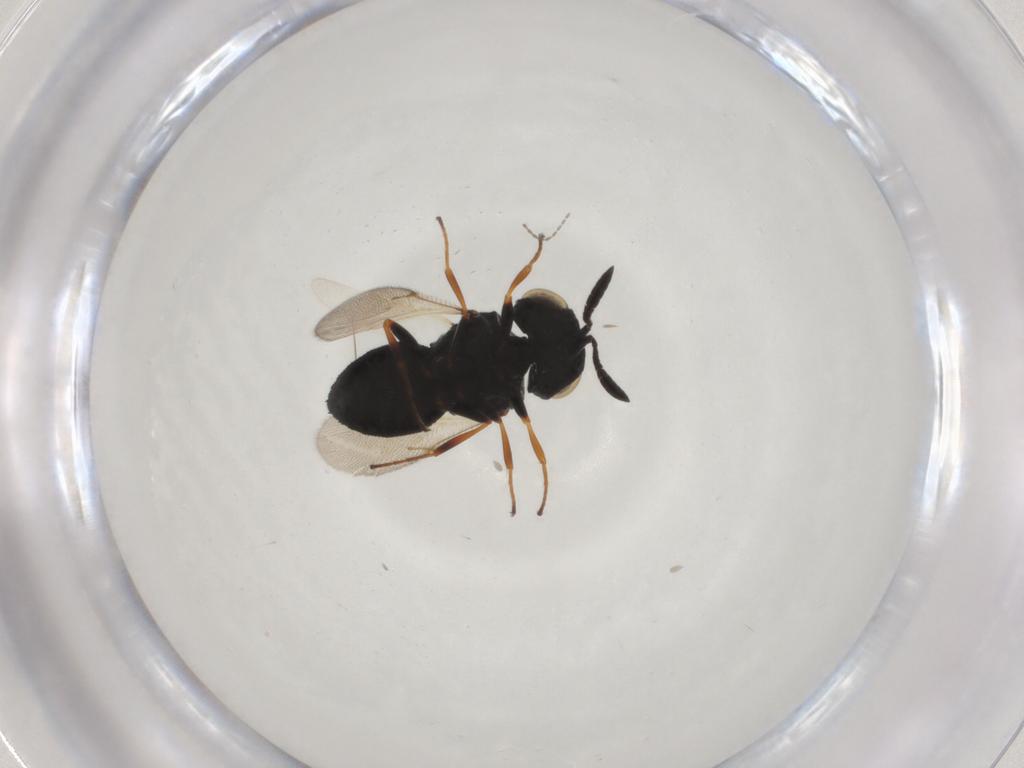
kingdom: Animalia
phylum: Arthropoda
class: Insecta
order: Hymenoptera
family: Scelionidae
